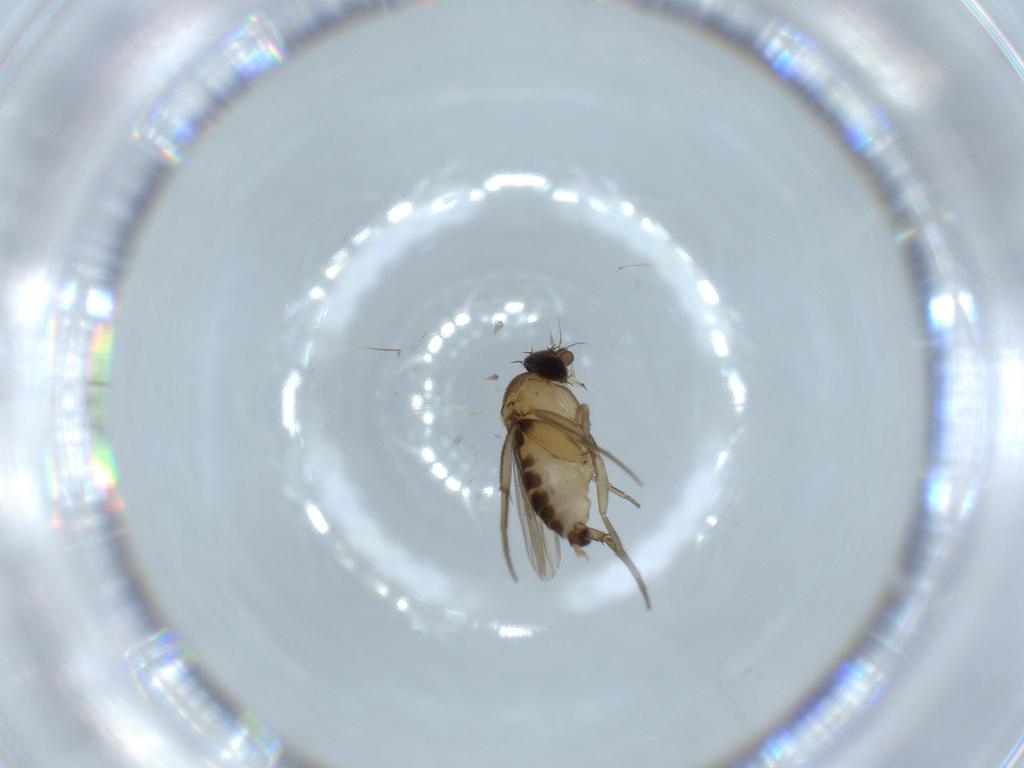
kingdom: Animalia
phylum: Arthropoda
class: Insecta
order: Diptera
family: Phoridae
